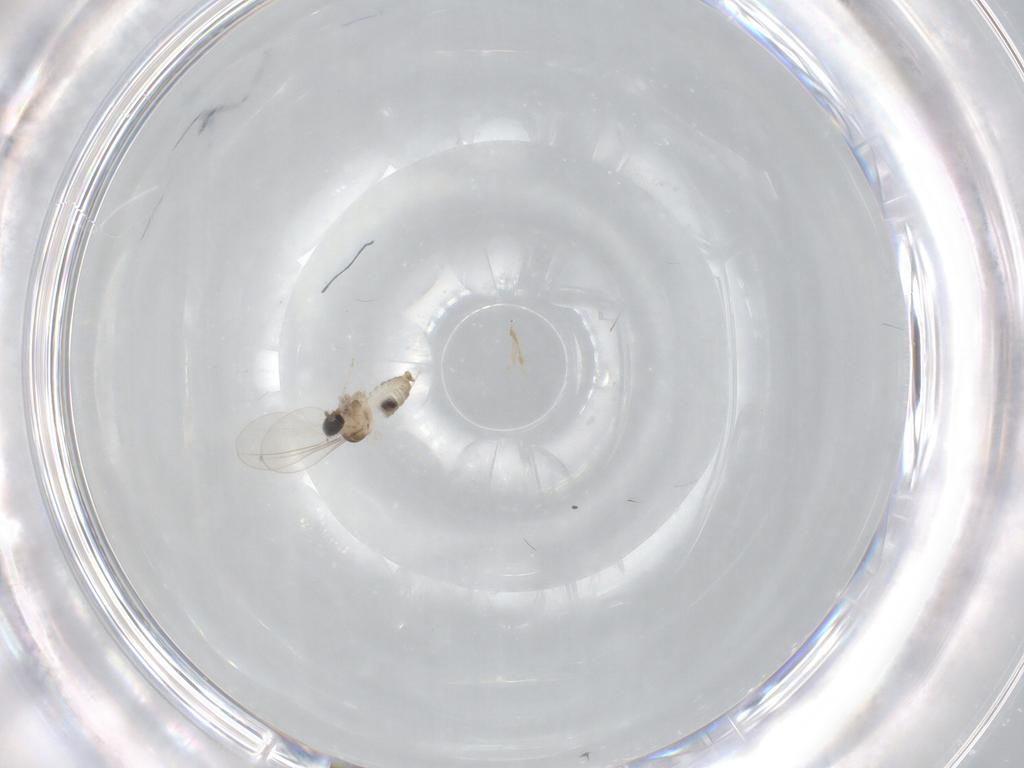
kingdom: Animalia
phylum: Arthropoda
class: Insecta
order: Diptera
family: Cecidomyiidae
